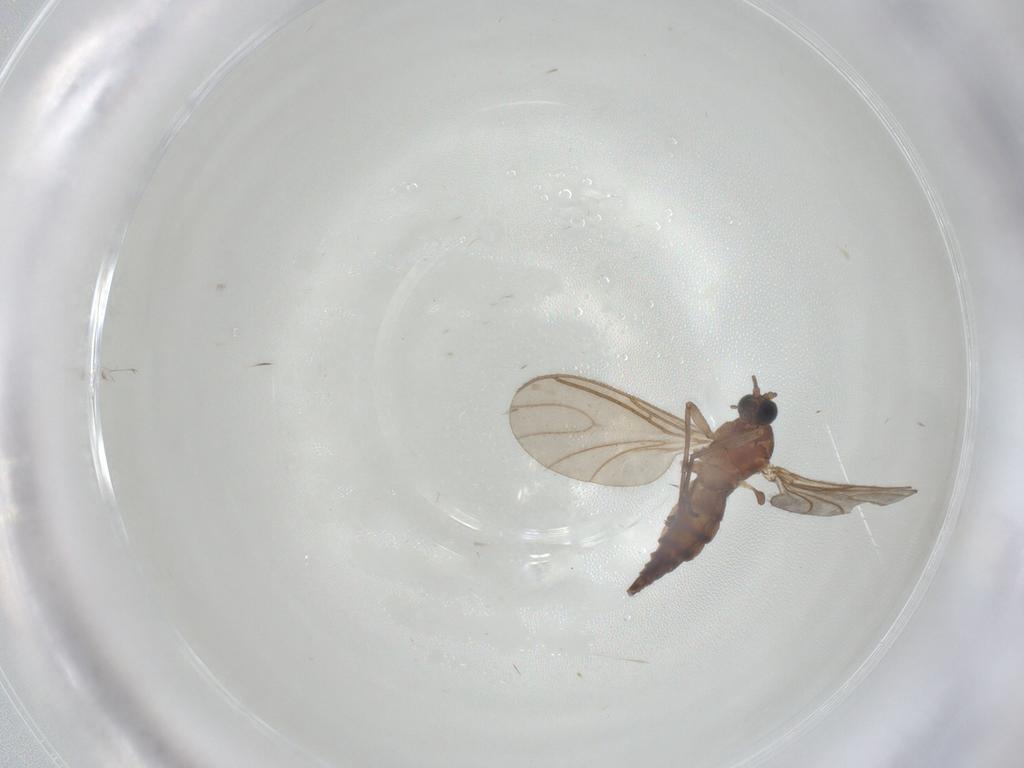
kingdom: Animalia
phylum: Arthropoda
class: Insecta
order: Diptera
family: Sciaridae
